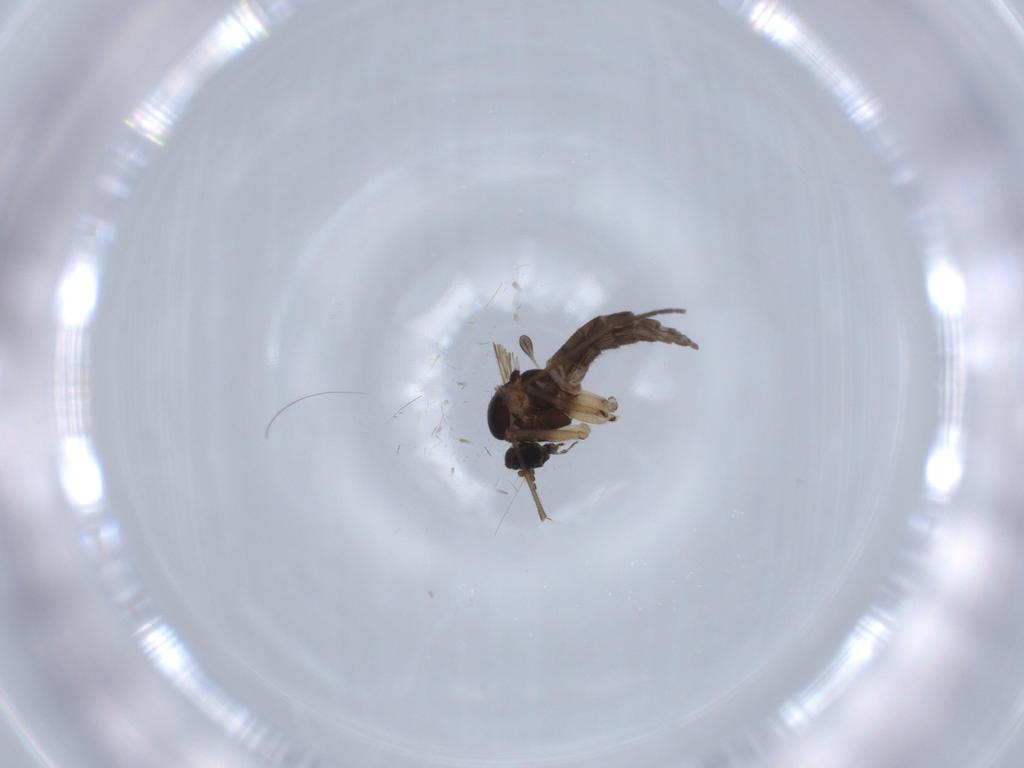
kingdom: Animalia
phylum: Arthropoda
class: Insecta
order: Diptera
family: Sciaridae
